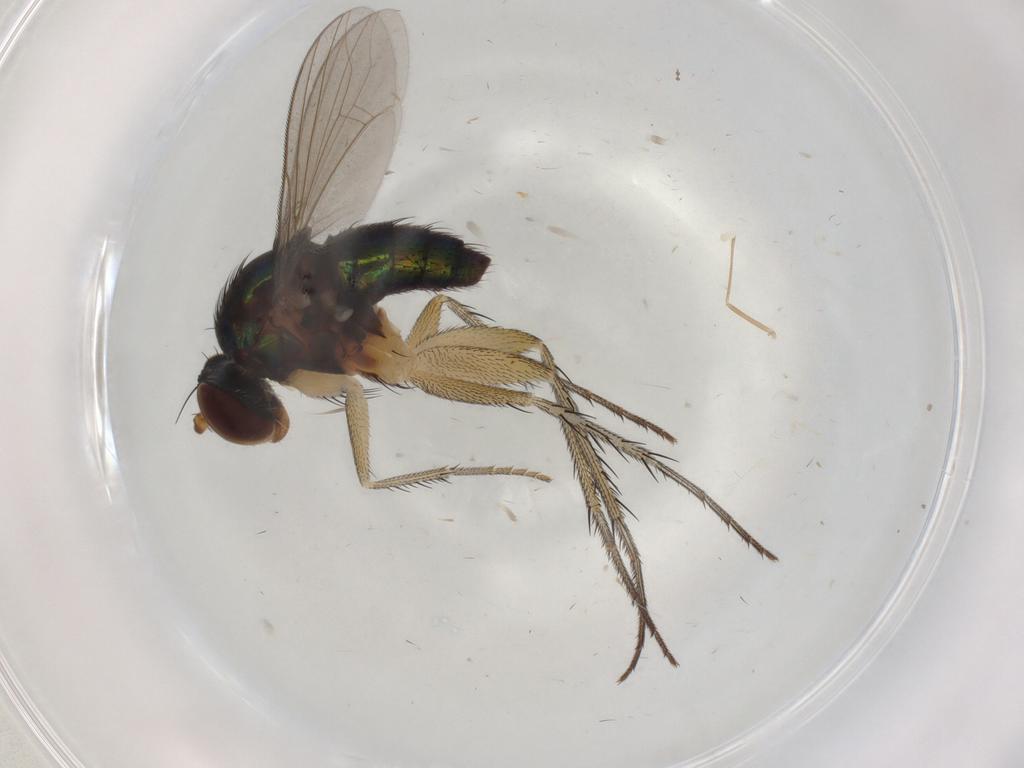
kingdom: Animalia
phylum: Arthropoda
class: Insecta
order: Diptera
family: Dolichopodidae
